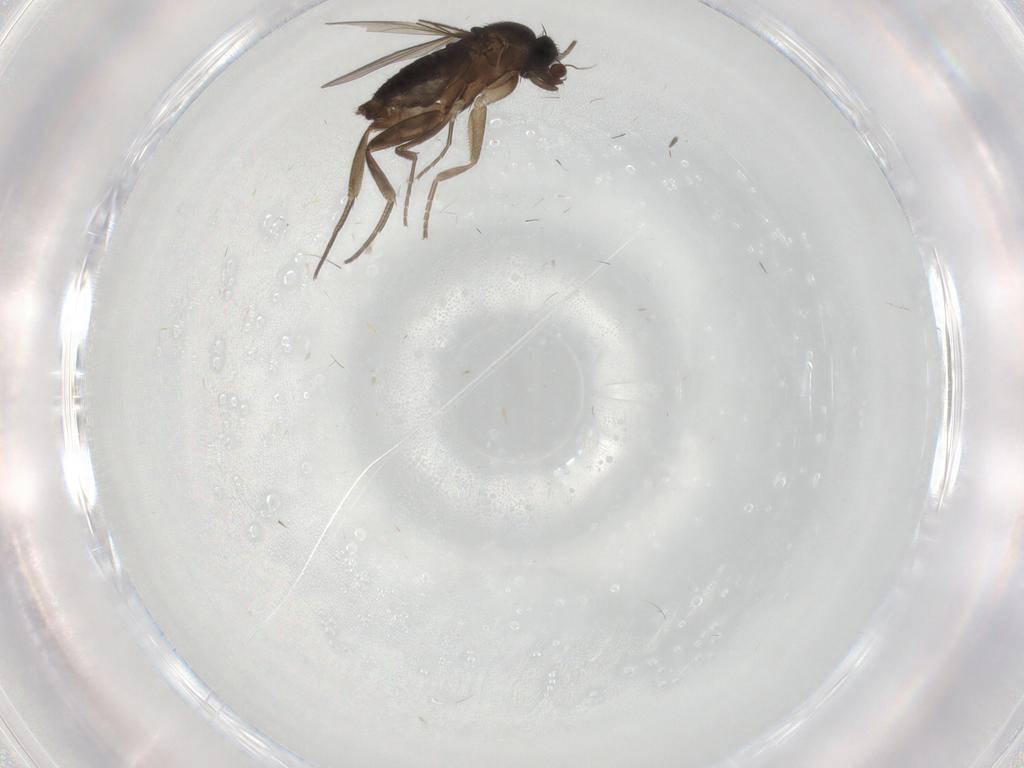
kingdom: Animalia
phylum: Arthropoda
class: Insecta
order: Diptera
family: Phoridae
